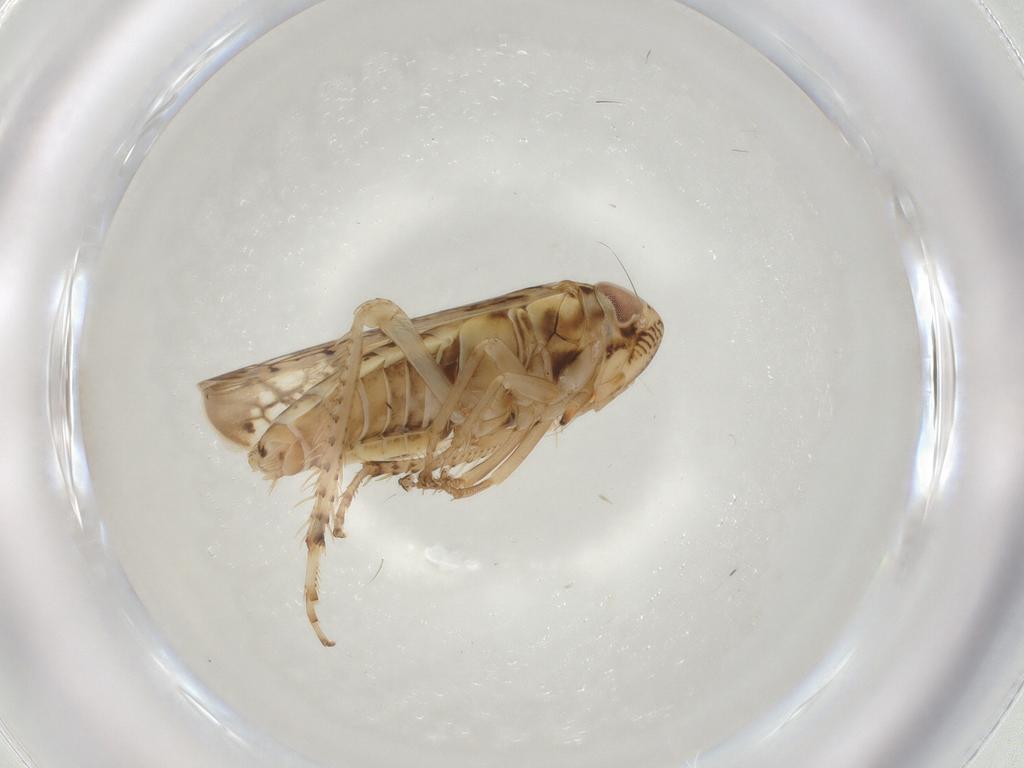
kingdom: Animalia
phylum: Arthropoda
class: Insecta
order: Hemiptera
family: Cicadellidae
